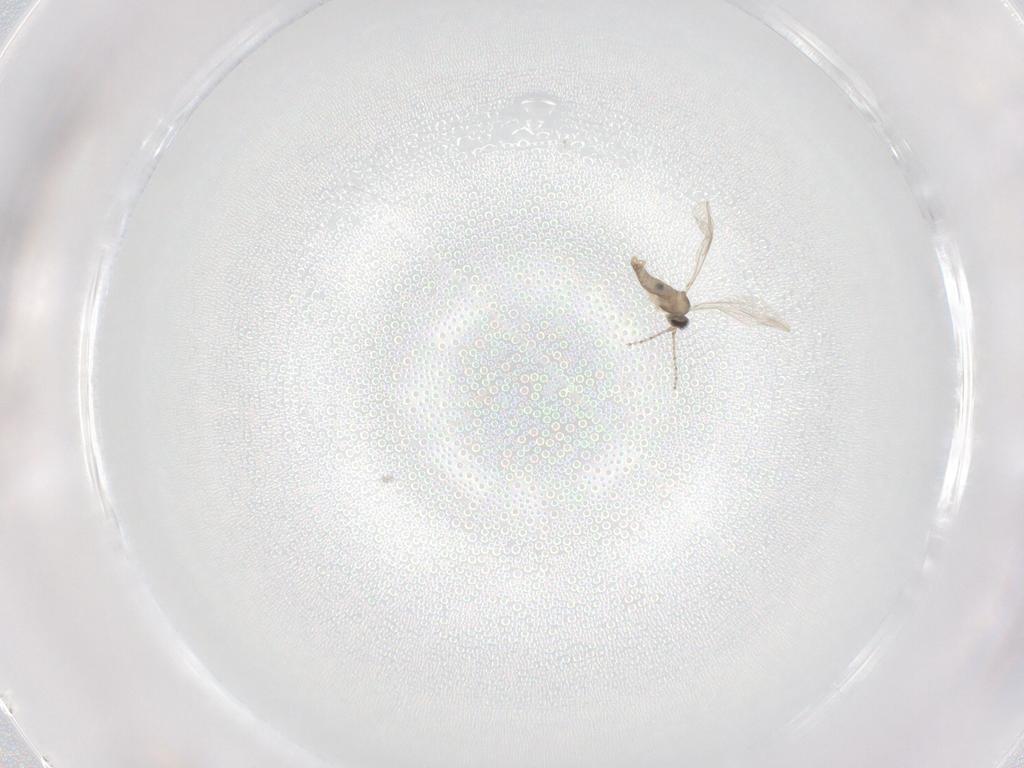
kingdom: Animalia
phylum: Arthropoda
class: Insecta
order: Diptera
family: Cecidomyiidae
